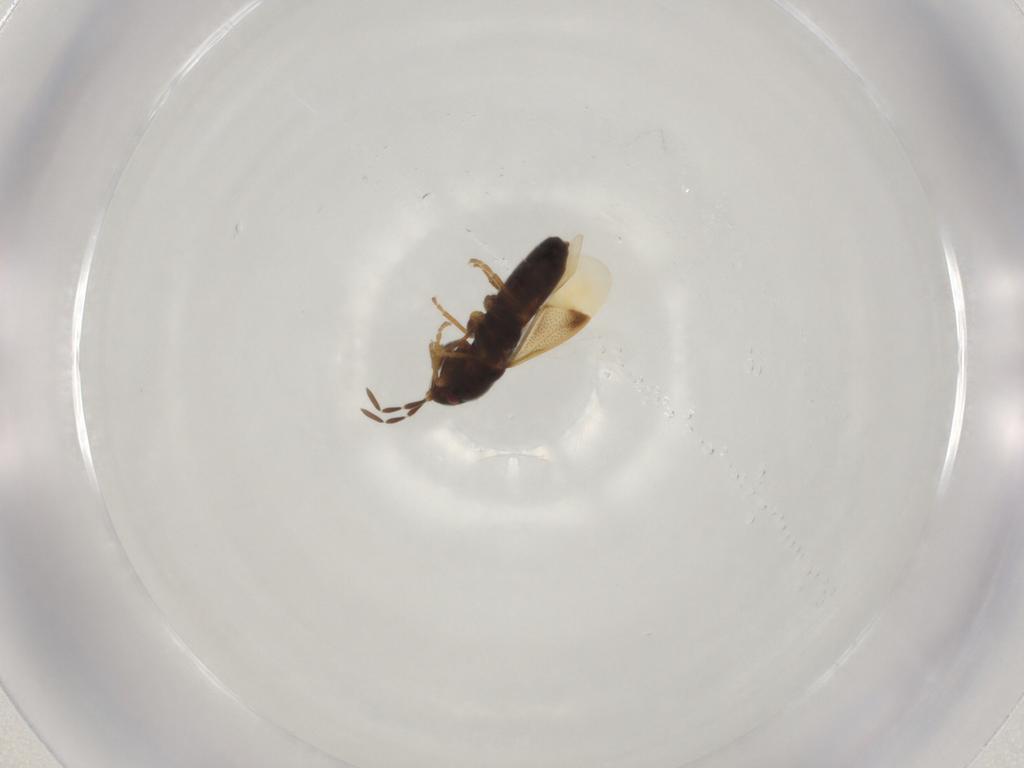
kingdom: Animalia
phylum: Arthropoda
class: Insecta
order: Hemiptera
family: Rhyparochromidae
